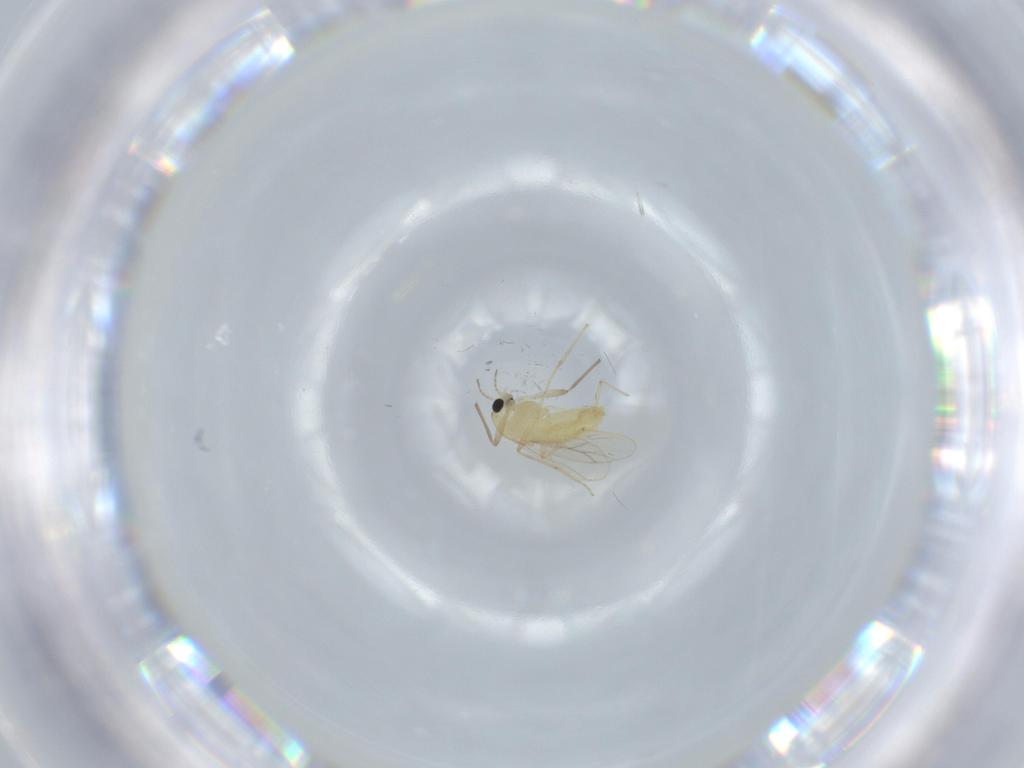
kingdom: Animalia
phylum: Arthropoda
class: Insecta
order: Diptera
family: Chironomidae
